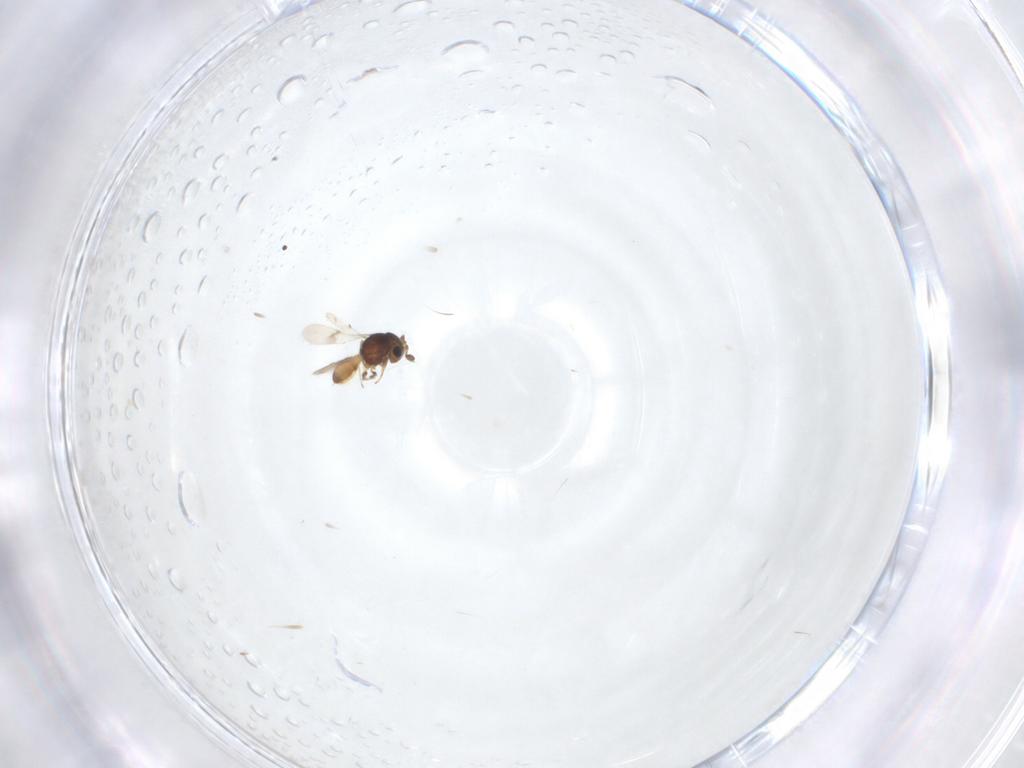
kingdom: Animalia
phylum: Arthropoda
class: Insecta
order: Hymenoptera
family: Scelionidae
